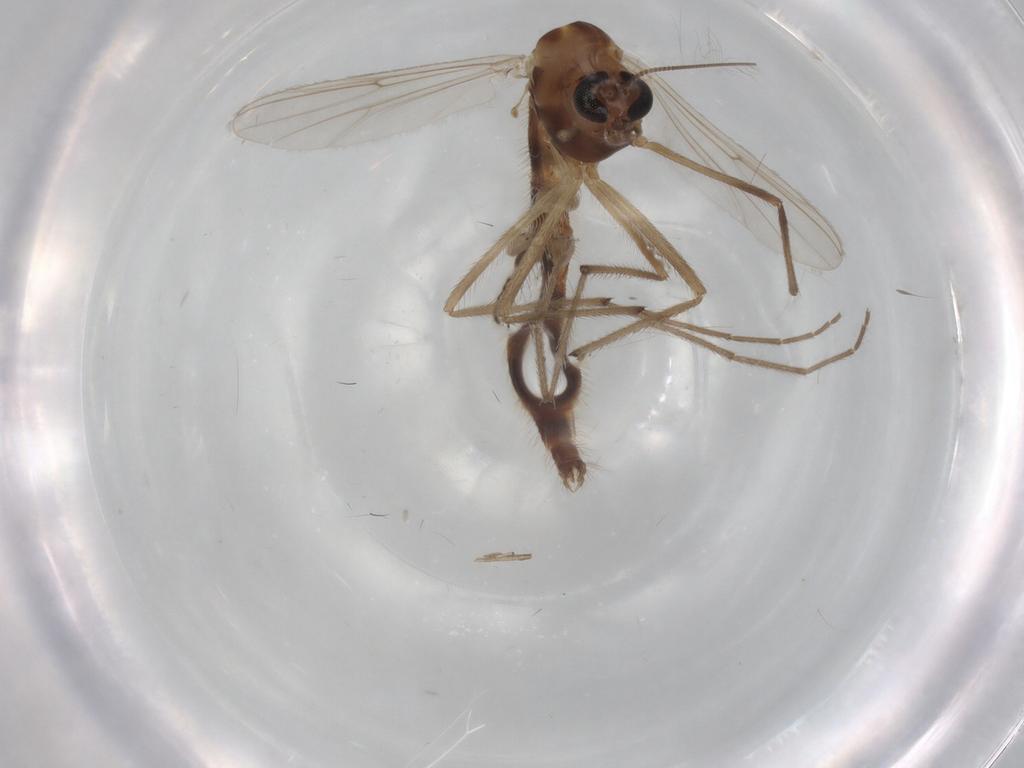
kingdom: Animalia
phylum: Arthropoda
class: Insecta
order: Diptera
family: Chironomidae
